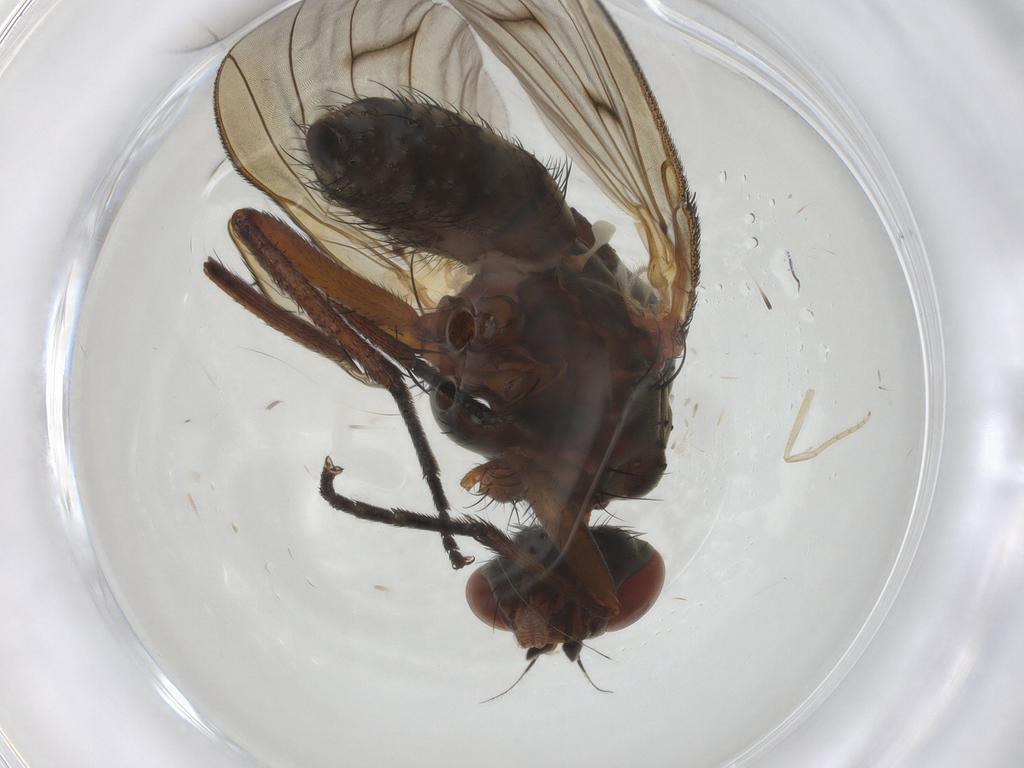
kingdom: Animalia
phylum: Arthropoda
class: Insecta
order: Diptera
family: Anthomyiidae
